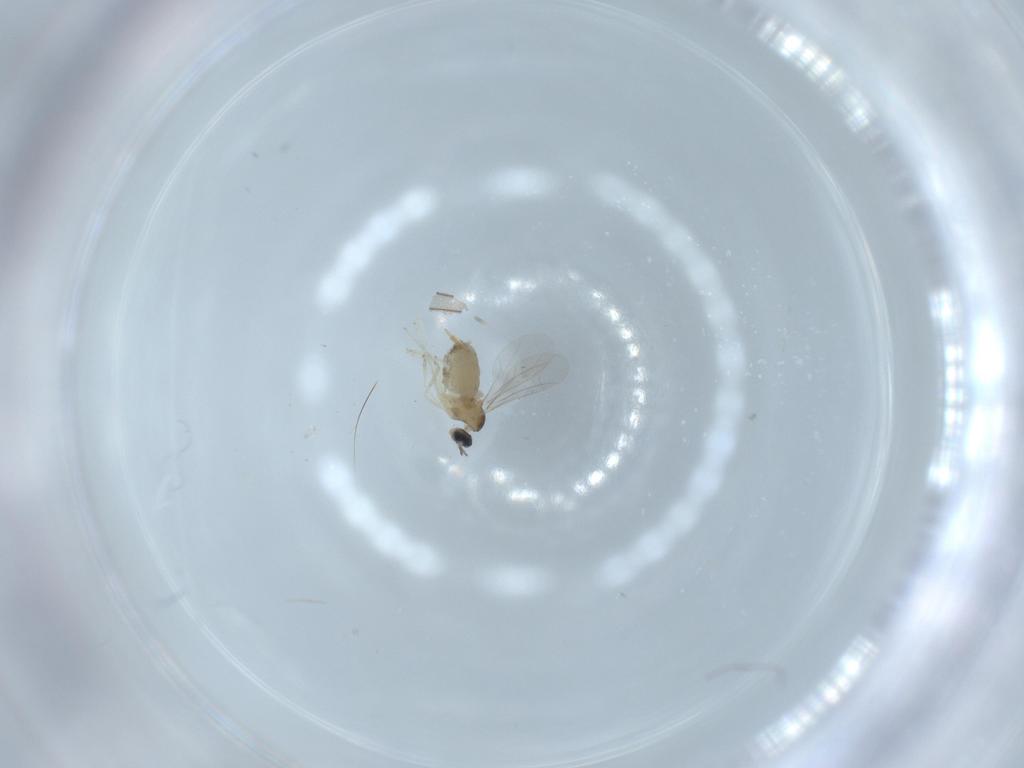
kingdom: Animalia
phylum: Arthropoda
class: Insecta
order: Diptera
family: Cecidomyiidae
